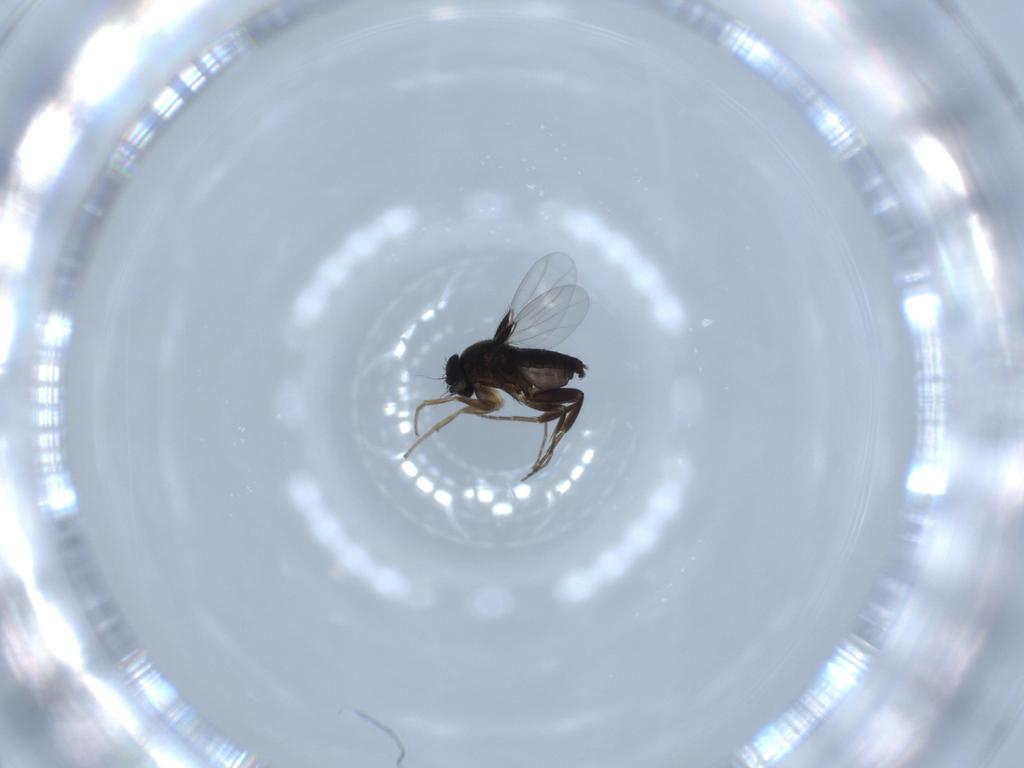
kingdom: Animalia
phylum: Arthropoda
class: Insecta
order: Diptera
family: Phoridae
